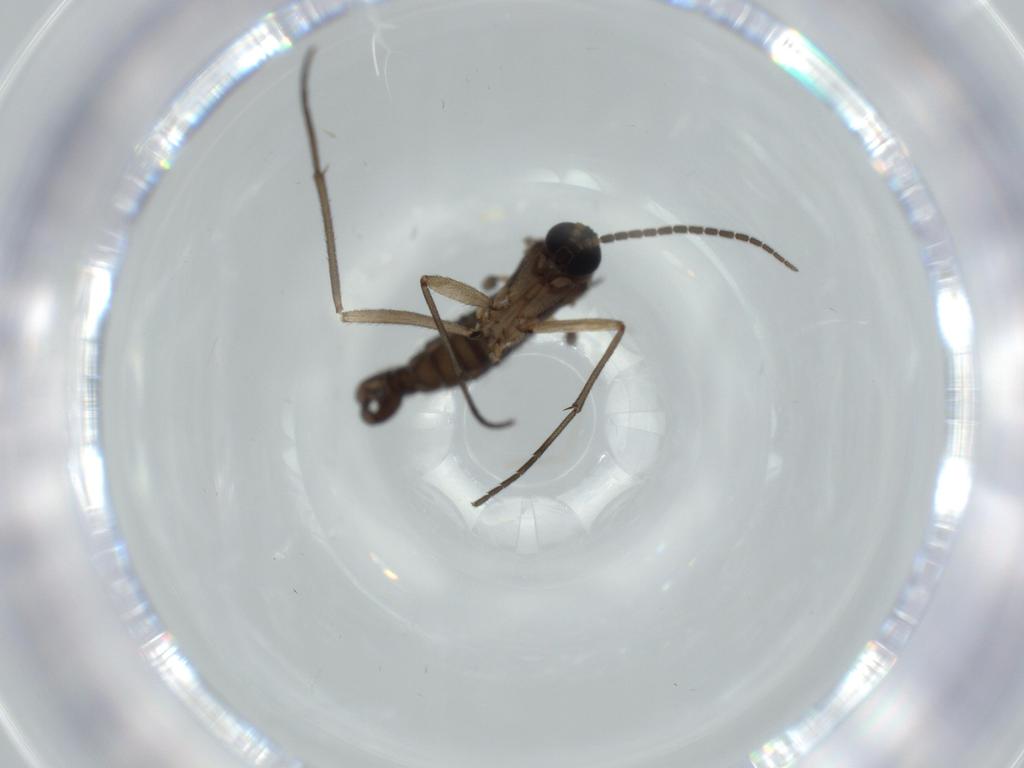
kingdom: Animalia
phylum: Arthropoda
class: Insecta
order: Diptera
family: Sciaridae
